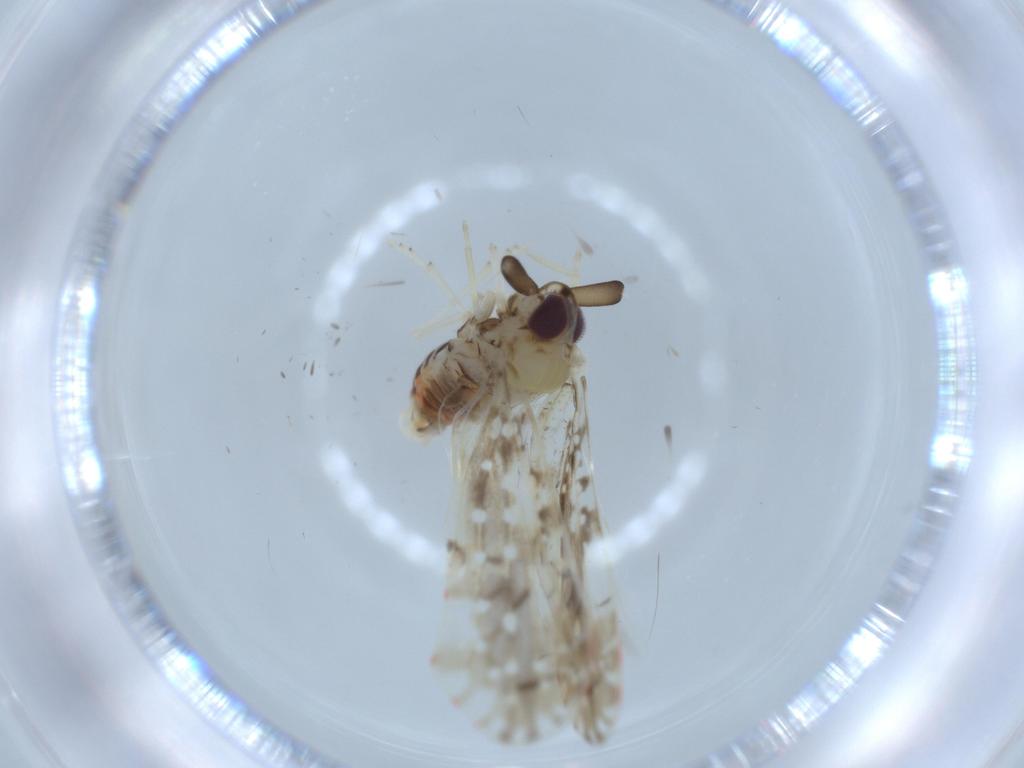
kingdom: Animalia
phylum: Arthropoda
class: Insecta
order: Hemiptera
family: Derbidae
